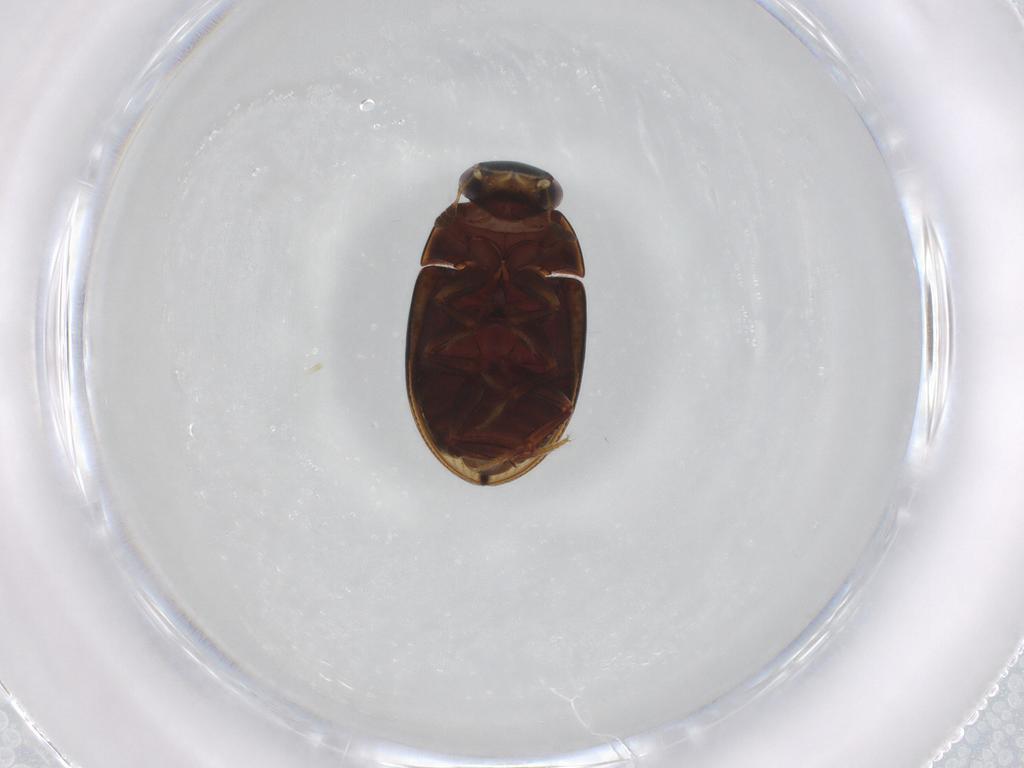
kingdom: Animalia
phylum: Arthropoda
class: Insecta
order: Coleoptera
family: Hydrophilidae
